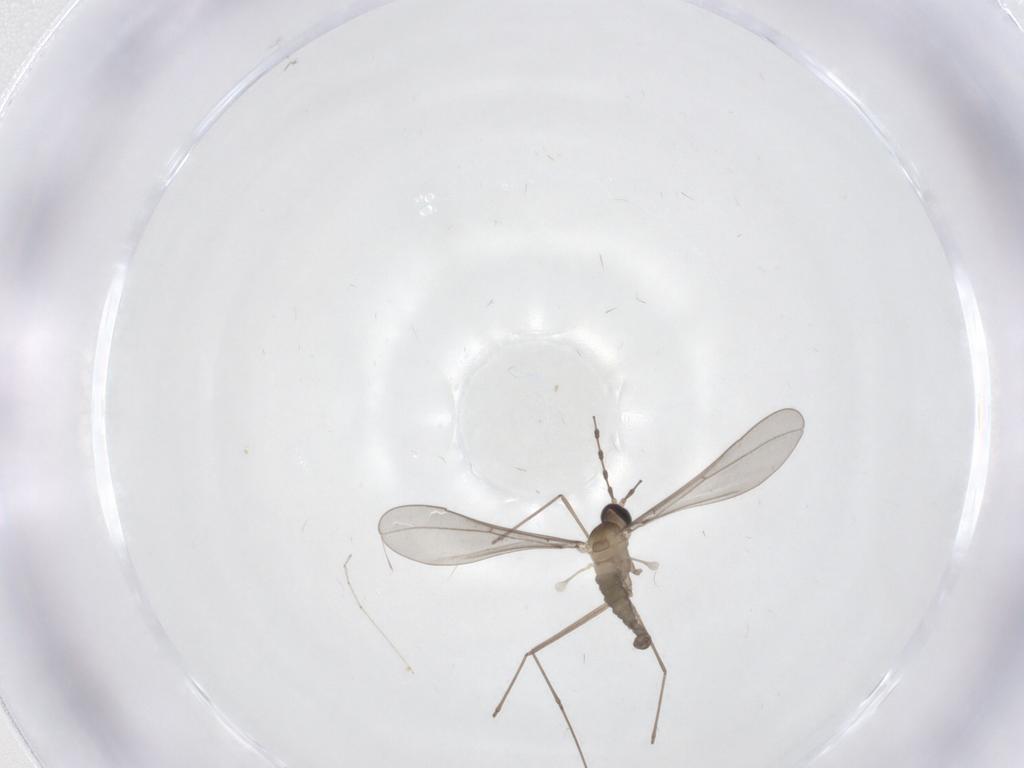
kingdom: Animalia
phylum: Arthropoda
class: Insecta
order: Diptera
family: Cecidomyiidae
